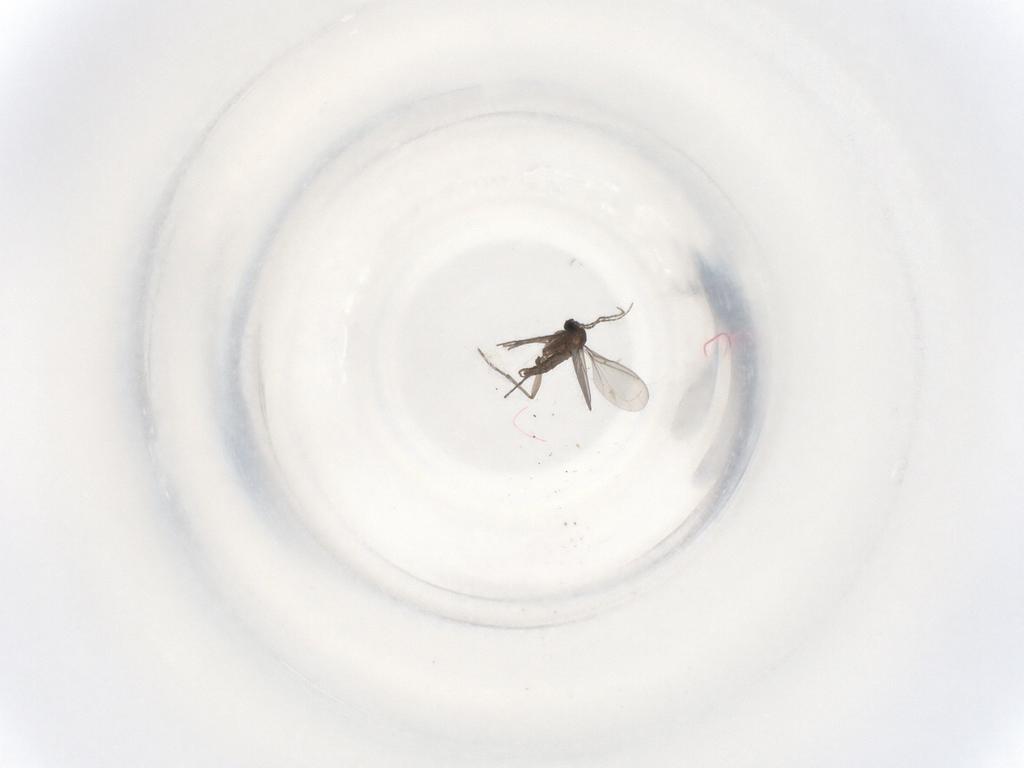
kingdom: Animalia
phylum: Arthropoda
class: Insecta
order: Diptera
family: Sciaridae
